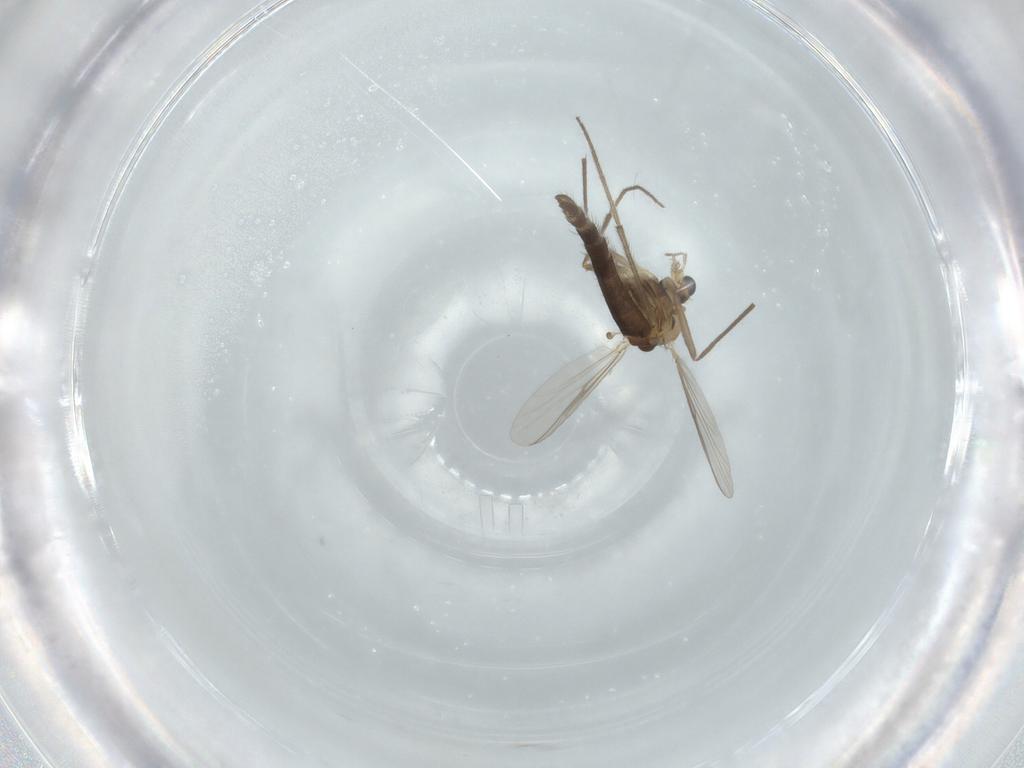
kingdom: Animalia
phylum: Arthropoda
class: Insecta
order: Diptera
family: Chironomidae
